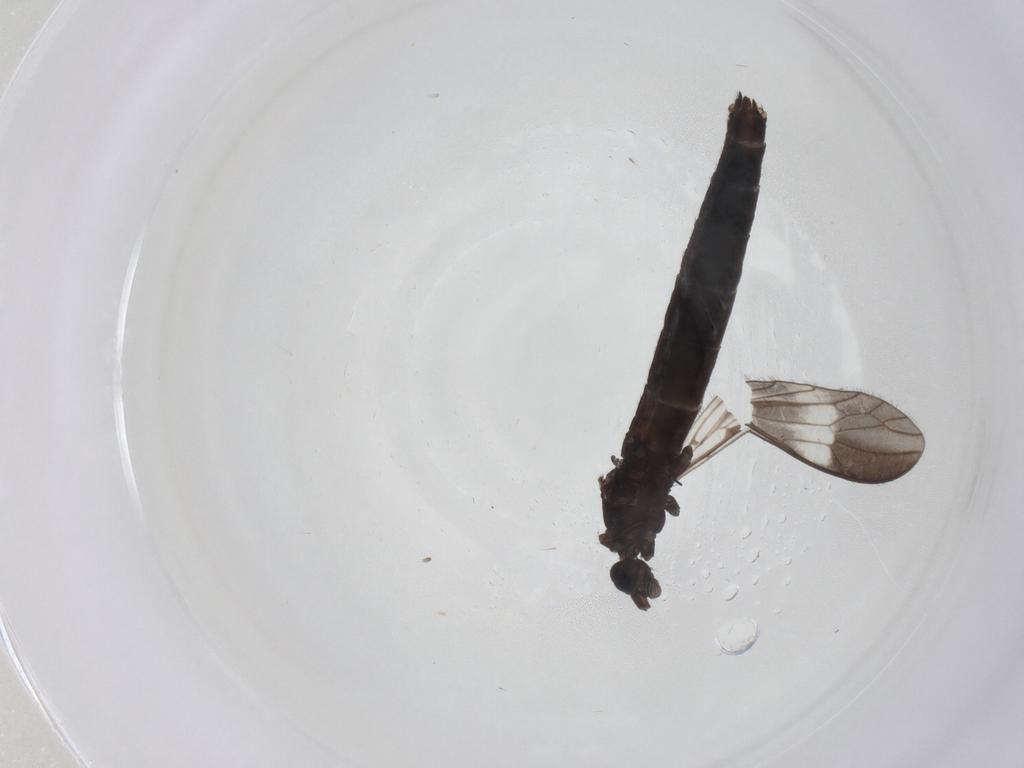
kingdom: Animalia
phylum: Arthropoda
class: Insecta
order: Diptera
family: Limoniidae
